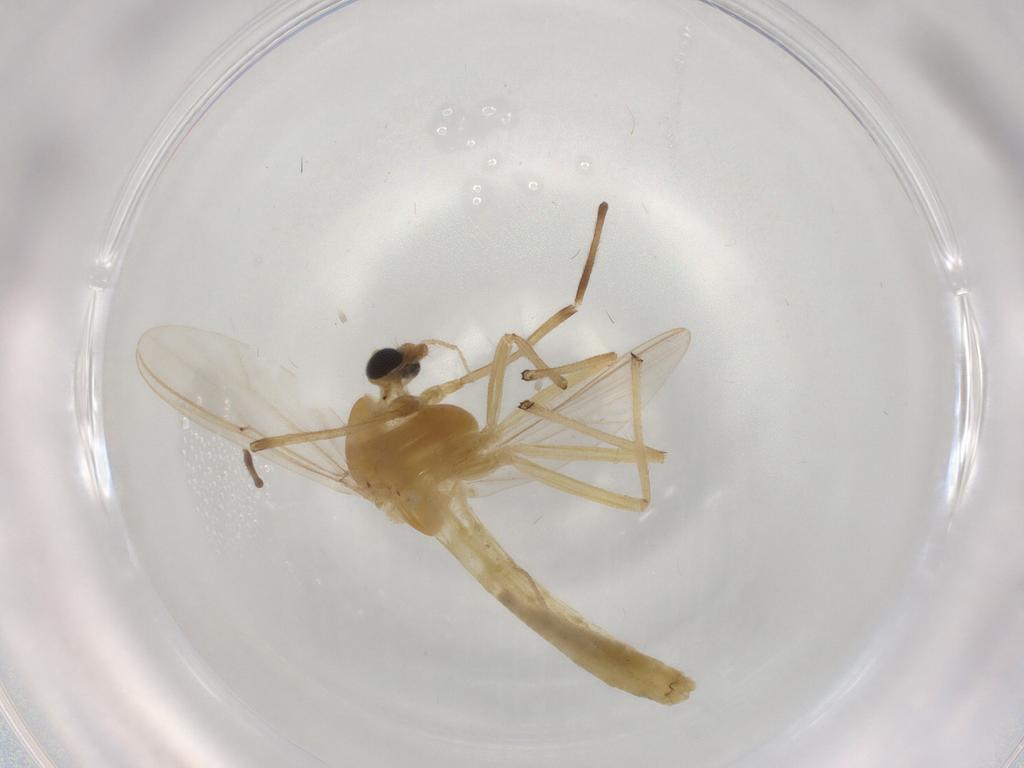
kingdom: Animalia
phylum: Arthropoda
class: Insecta
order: Diptera
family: Chironomidae
